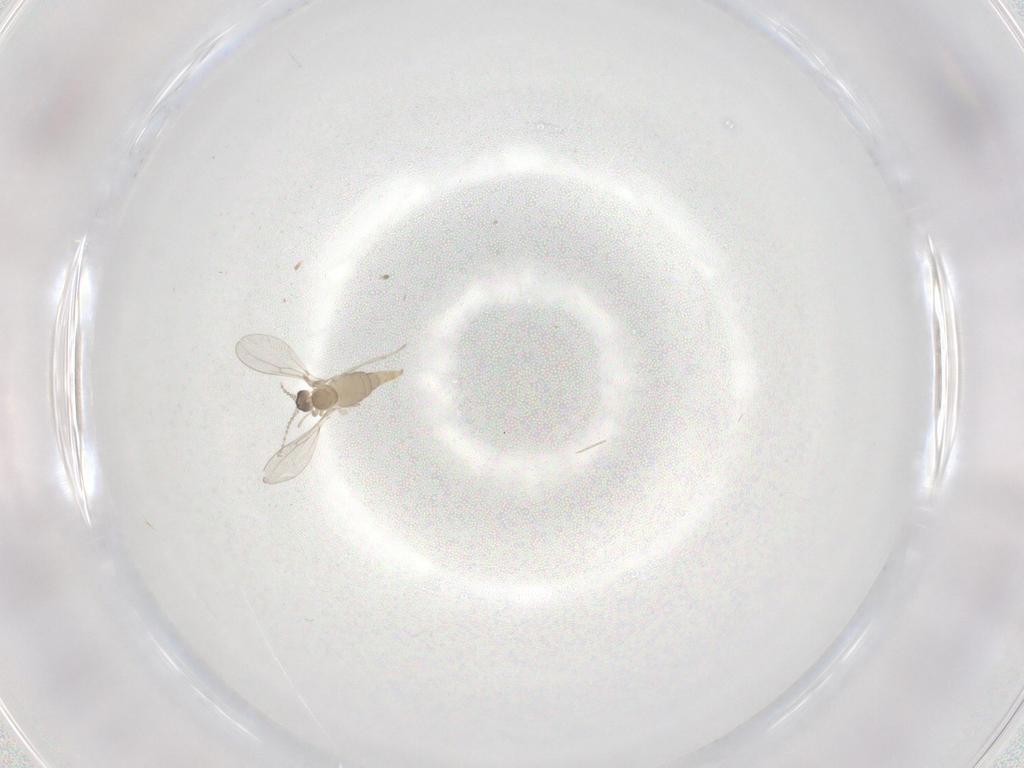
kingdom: Animalia
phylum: Arthropoda
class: Insecta
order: Diptera
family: Cecidomyiidae
